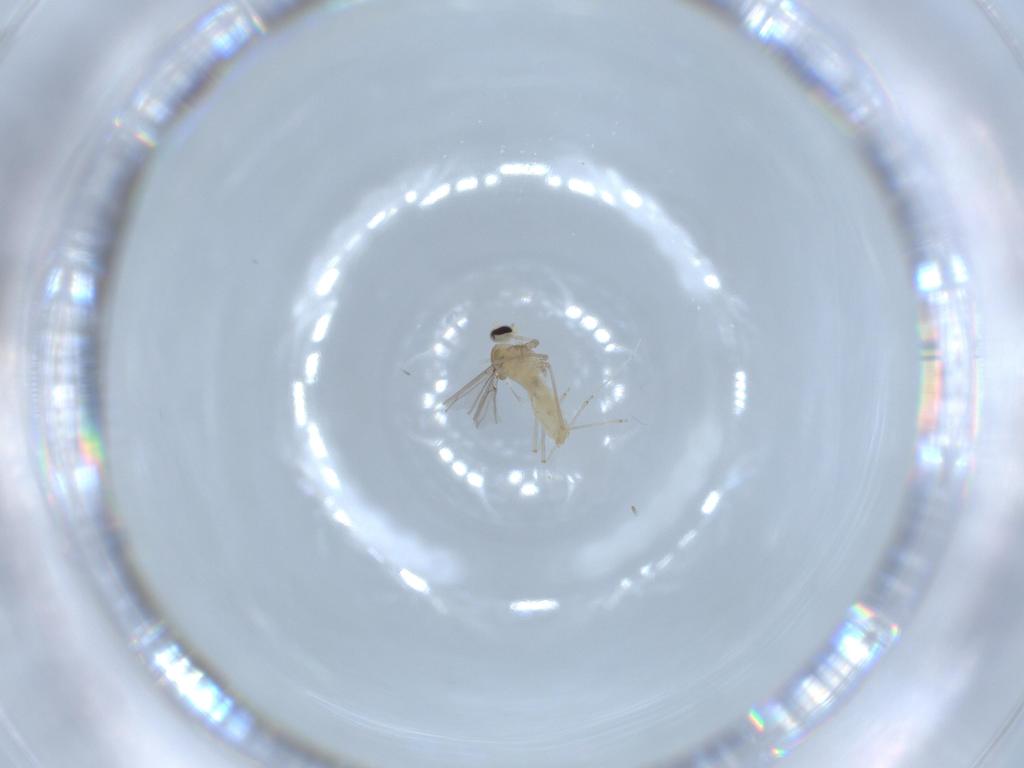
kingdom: Animalia
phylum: Arthropoda
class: Insecta
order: Diptera
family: Cecidomyiidae
